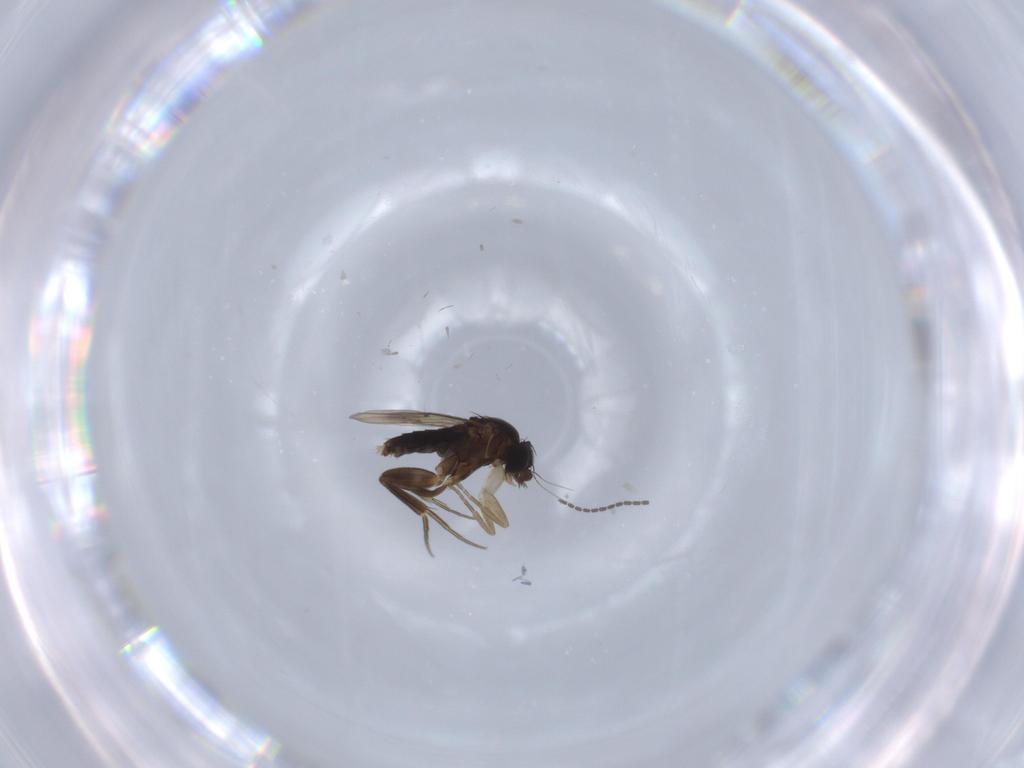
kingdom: Animalia
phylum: Arthropoda
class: Insecta
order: Diptera
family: Phoridae
